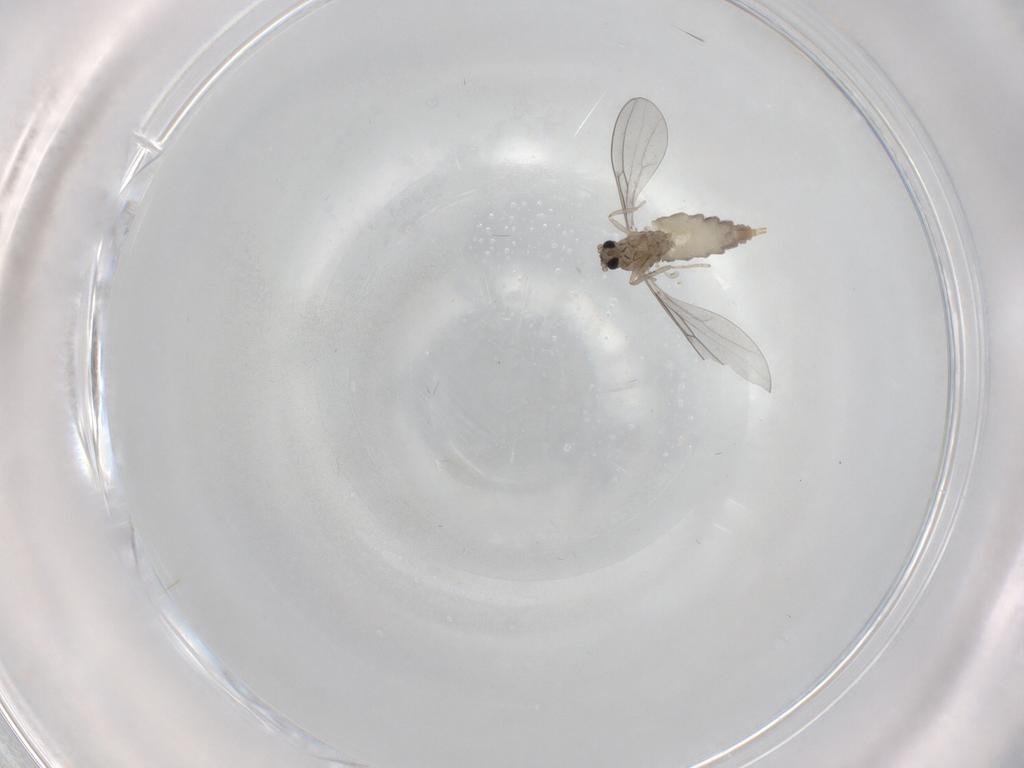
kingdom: Animalia
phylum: Arthropoda
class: Insecta
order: Diptera
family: Cecidomyiidae
